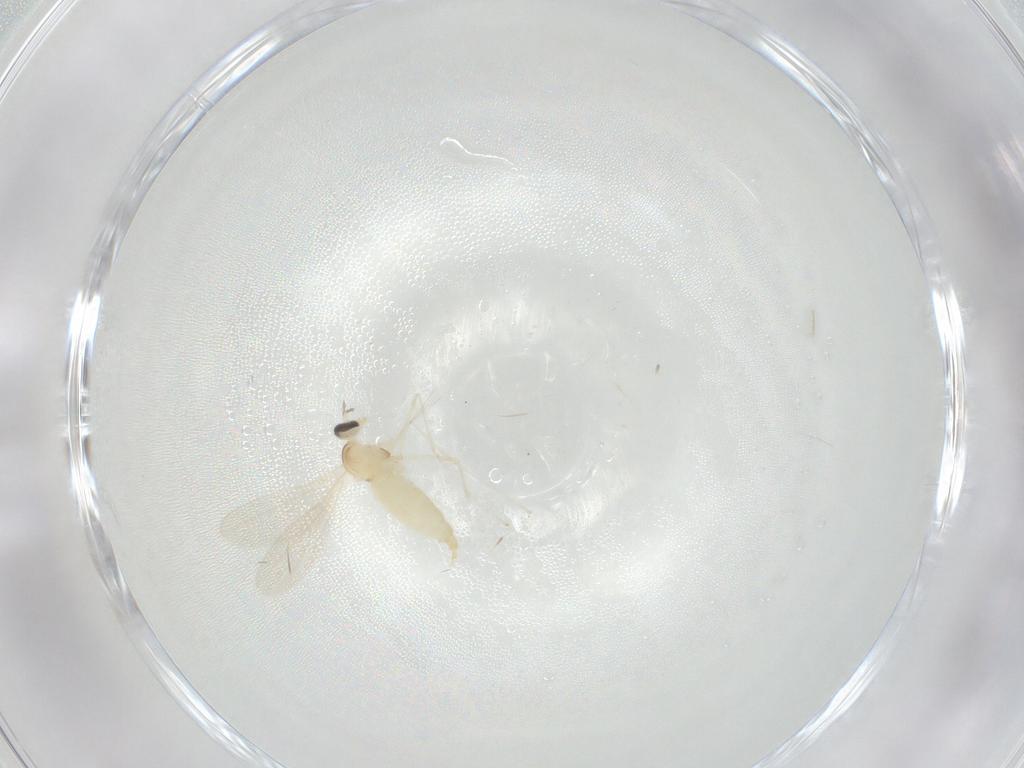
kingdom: Animalia
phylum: Arthropoda
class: Insecta
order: Diptera
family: Cecidomyiidae
